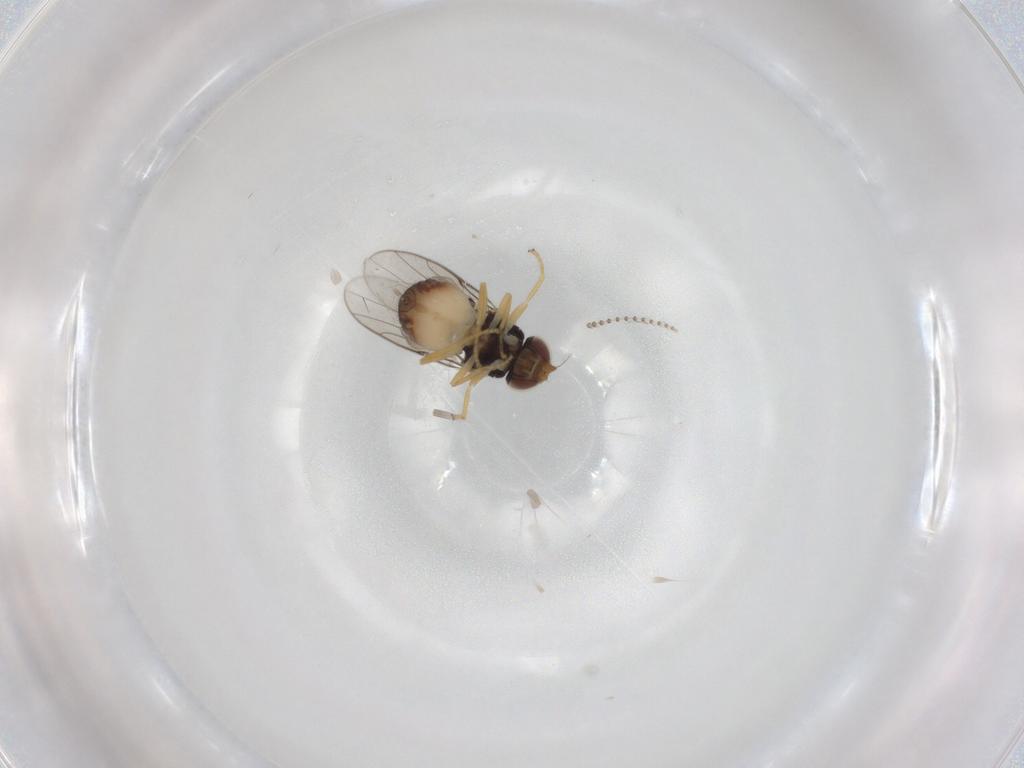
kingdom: Animalia
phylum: Arthropoda
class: Insecta
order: Diptera
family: Chloropidae
